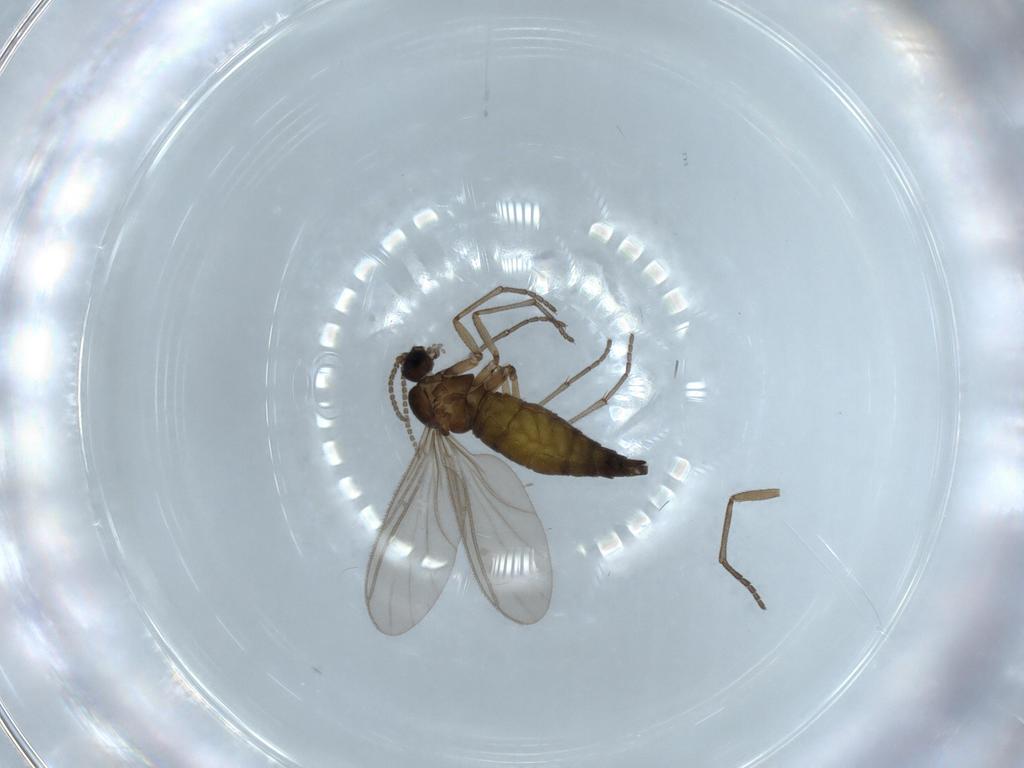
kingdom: Animalia
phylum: Arthropoda
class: Insecta
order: Diptera
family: Sciaridae
